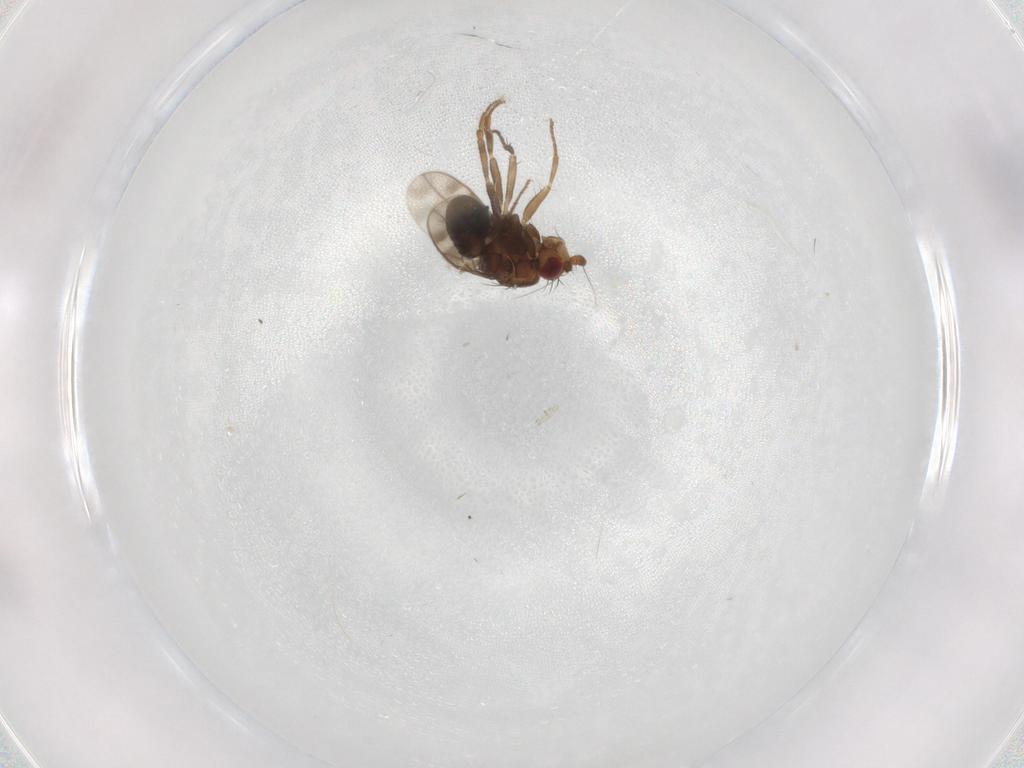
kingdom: Animalia
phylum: Arthropoda
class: Insecta
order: Diptera
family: Sphaeroceridae
